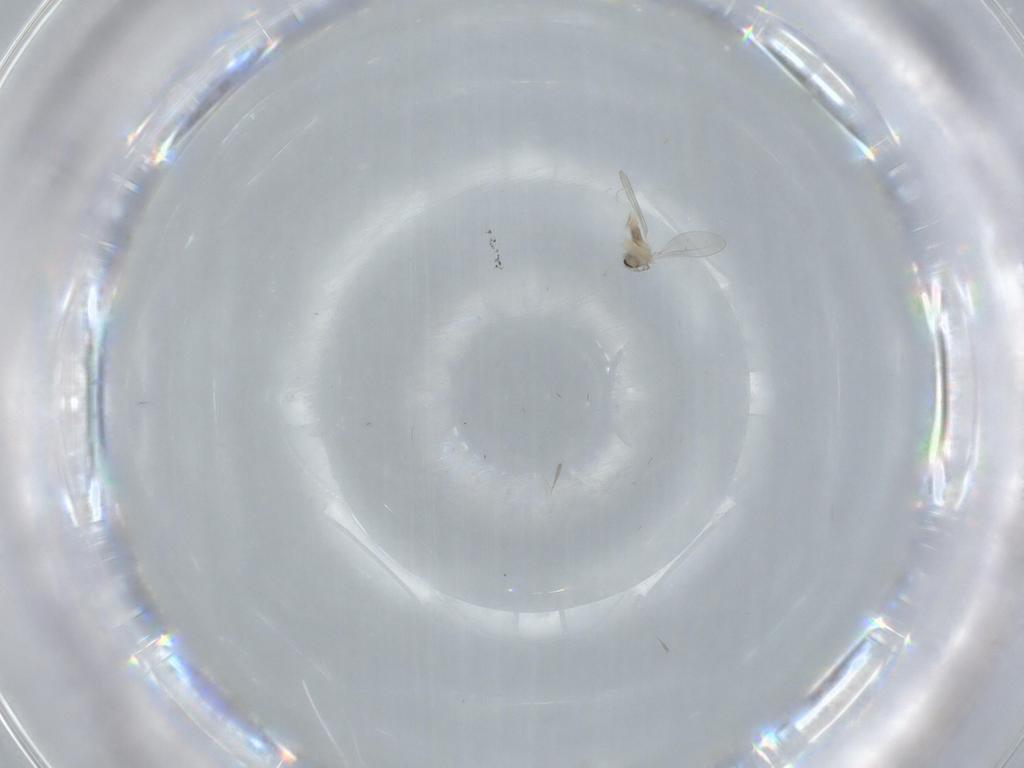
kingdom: Animalia
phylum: Arthropoda
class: Insecta
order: Diptera
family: Cecidomyiidae
